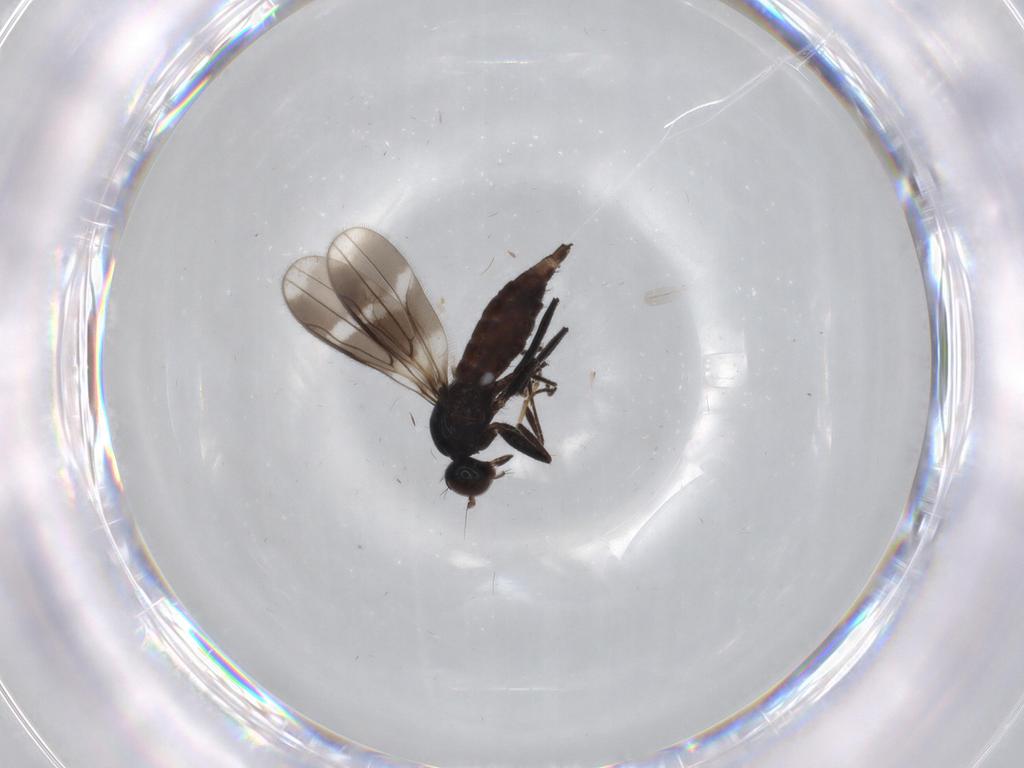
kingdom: Animalia
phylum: Arthropoda
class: Insecta
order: Diptera
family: Hybotidae
